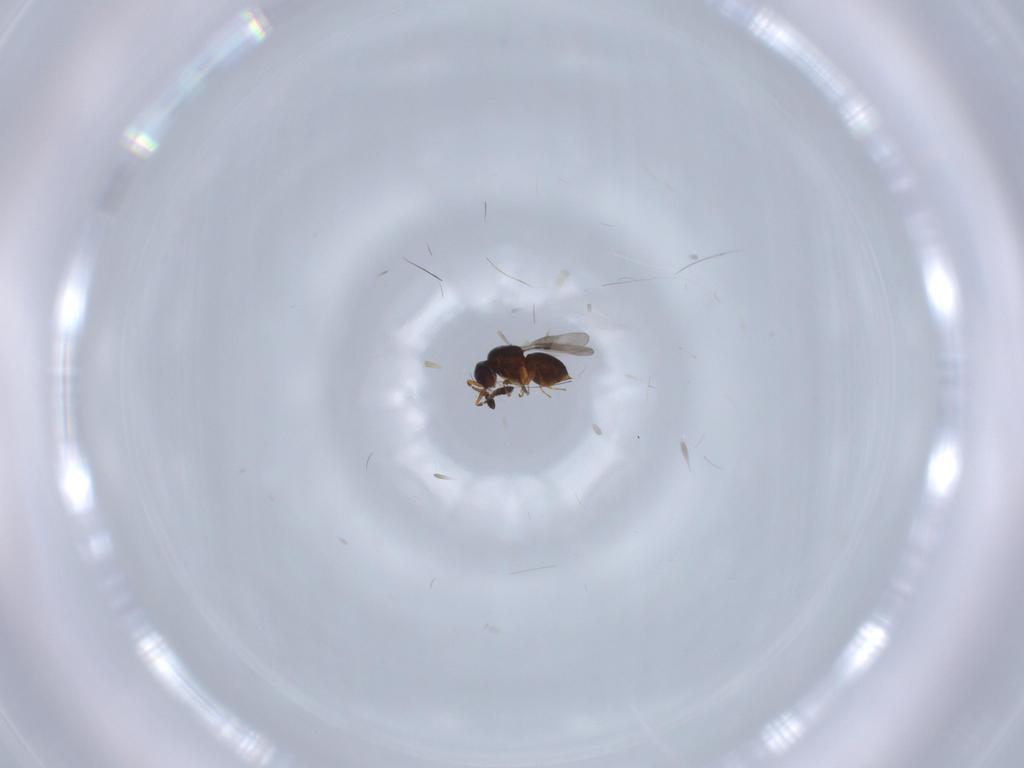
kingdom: Animalia
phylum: Arthropoda
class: Insecta
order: Hymenoptera
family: Ceraphronidae
